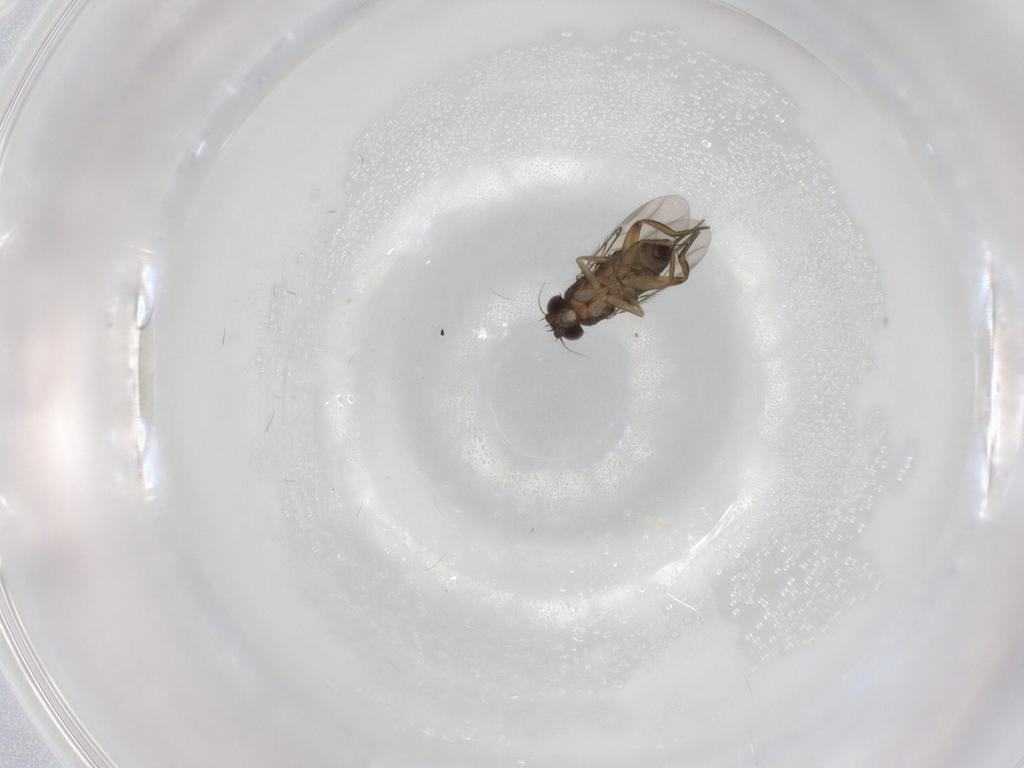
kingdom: Animalia
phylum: Arthropoda
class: Insecta
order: Diptera
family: Phoridae
